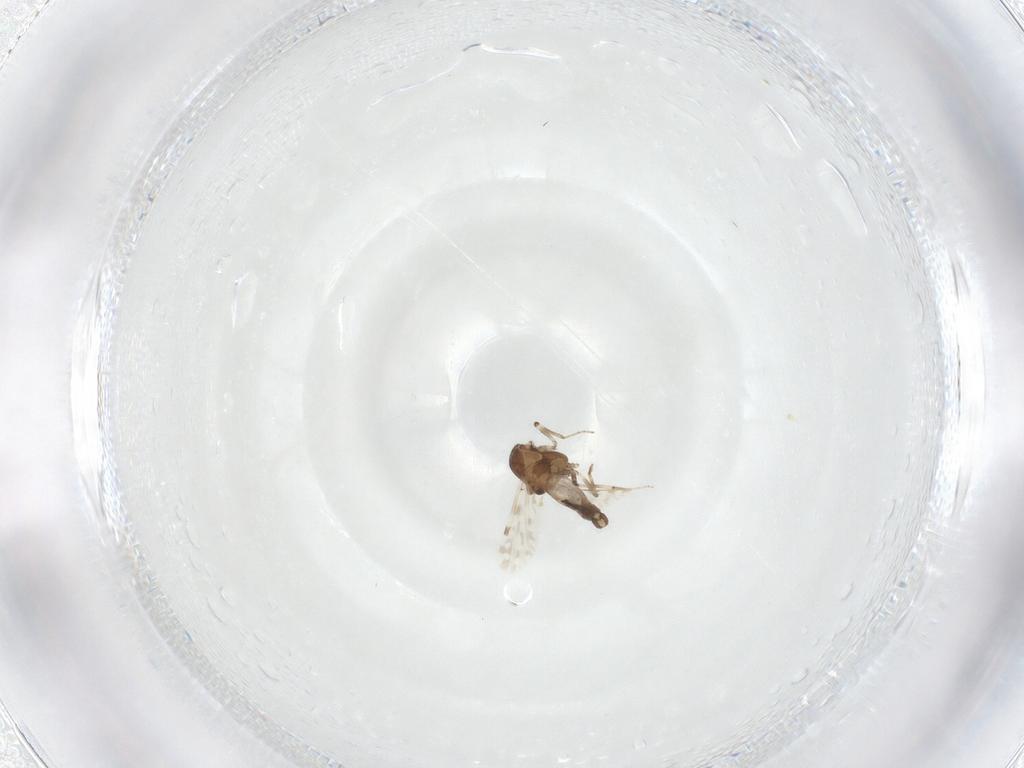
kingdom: Animalia
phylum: Arthropoda
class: Insecta
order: Diptera
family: Ceratopogonidae
